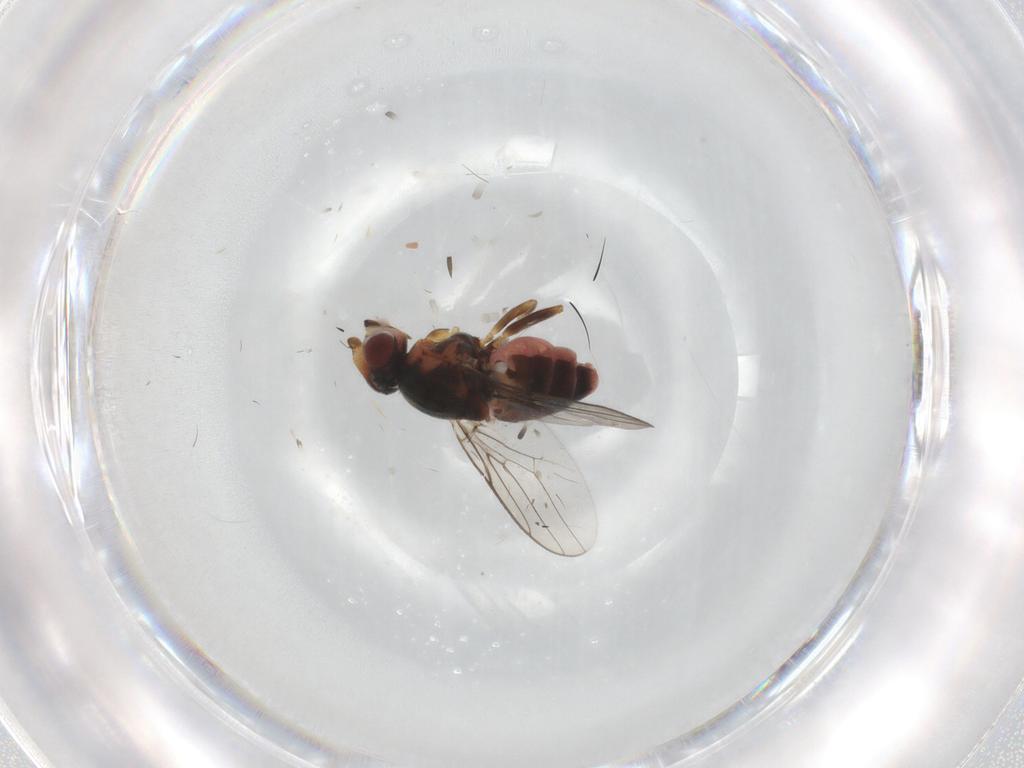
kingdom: Animalia
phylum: Arthropoda
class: Insecta
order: Diptera
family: Chloropidae
